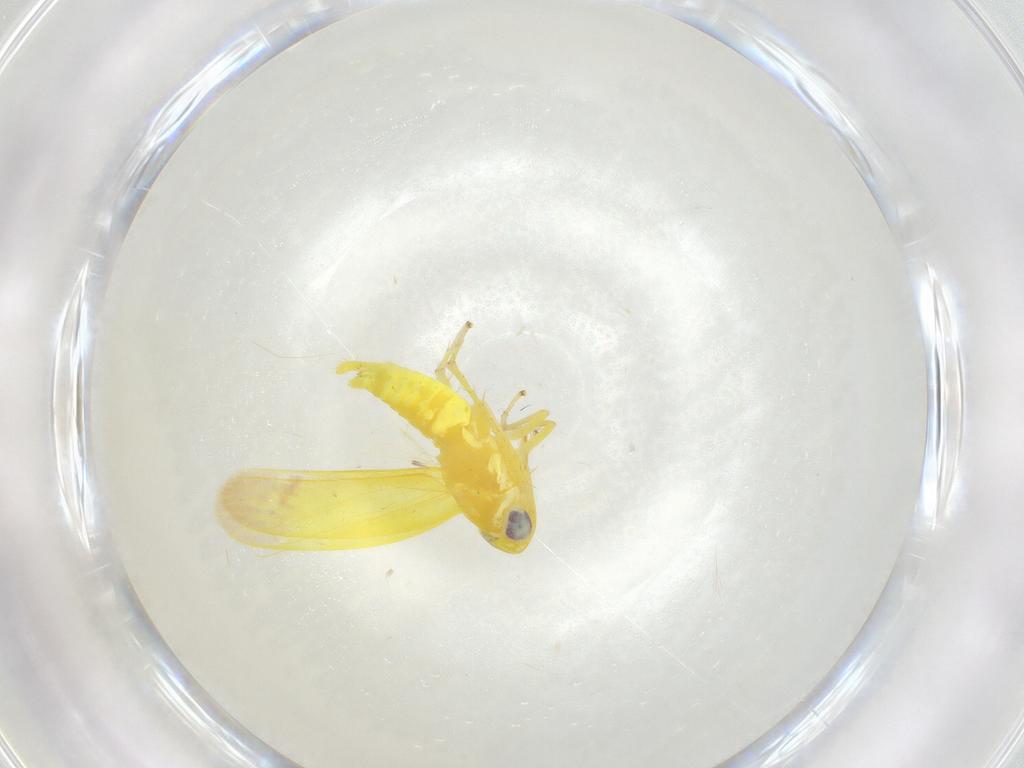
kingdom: Animalia
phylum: Arthropoda
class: Insecta
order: Hemiptera
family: Cicadellidae
